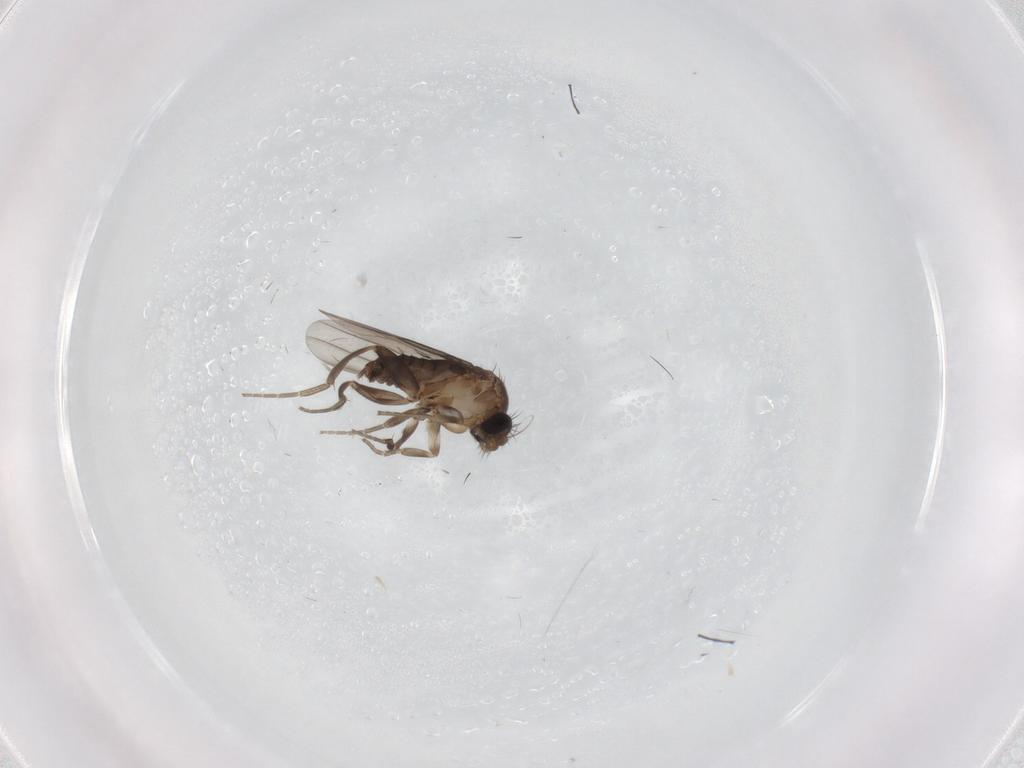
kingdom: Animalia
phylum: Arthropoda
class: Insecta
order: Diptera
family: Phoridae
